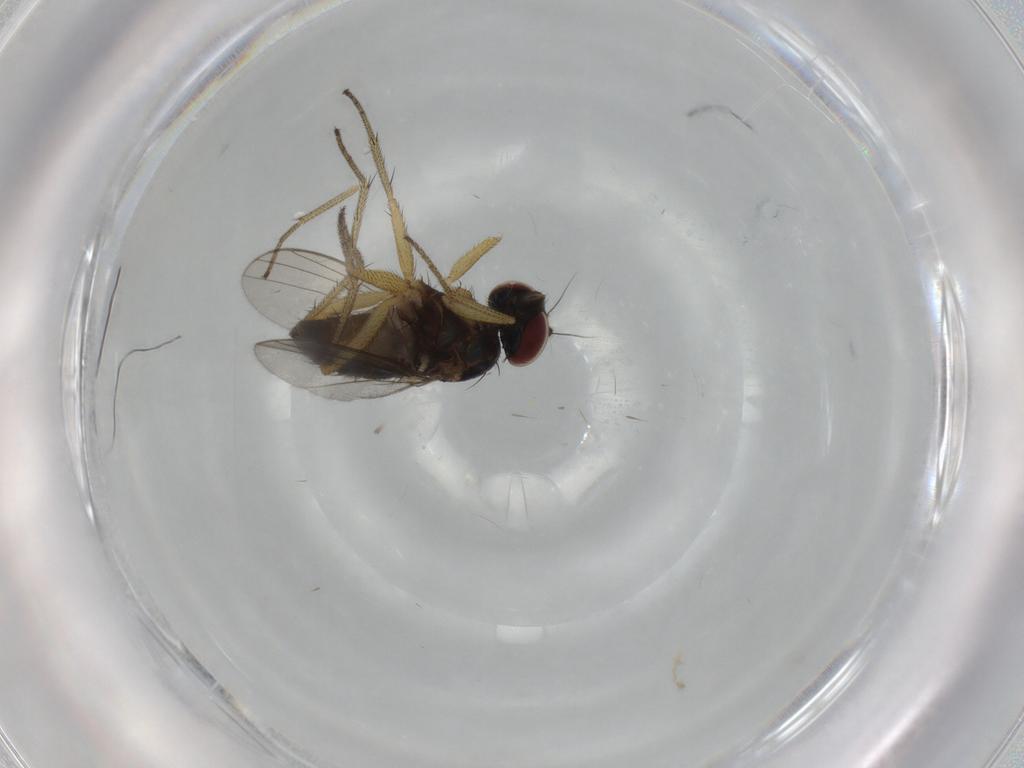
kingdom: Animalia
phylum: Arthropoda
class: Insecta
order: Diptera
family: Dolichopodidae
